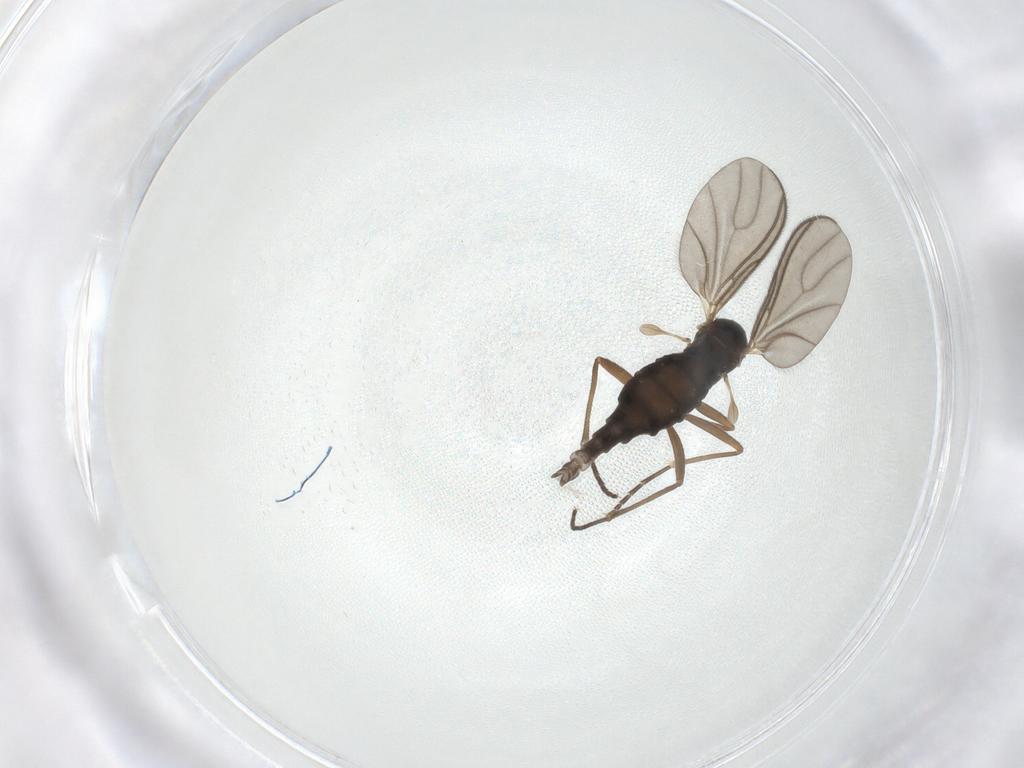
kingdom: Animalia
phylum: Arthropoda
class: Insecta
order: Diptera
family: Sciaridae
